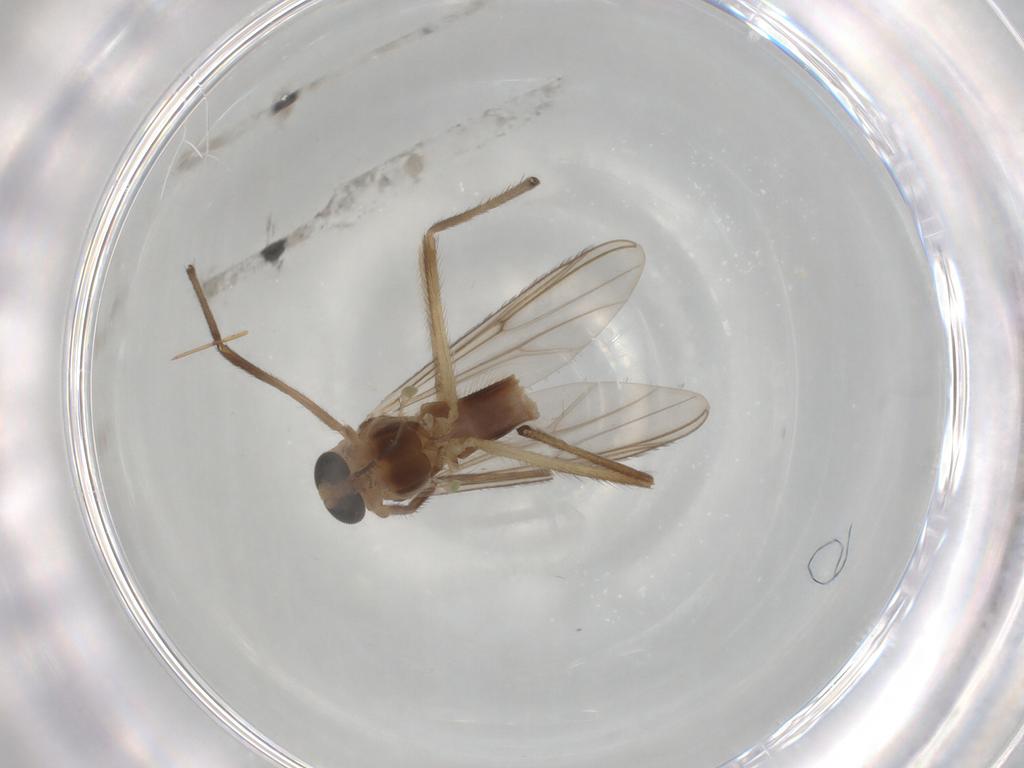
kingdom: Animalia
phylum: Arthropoda
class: Insecta
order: Diptera
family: Chironomidae
